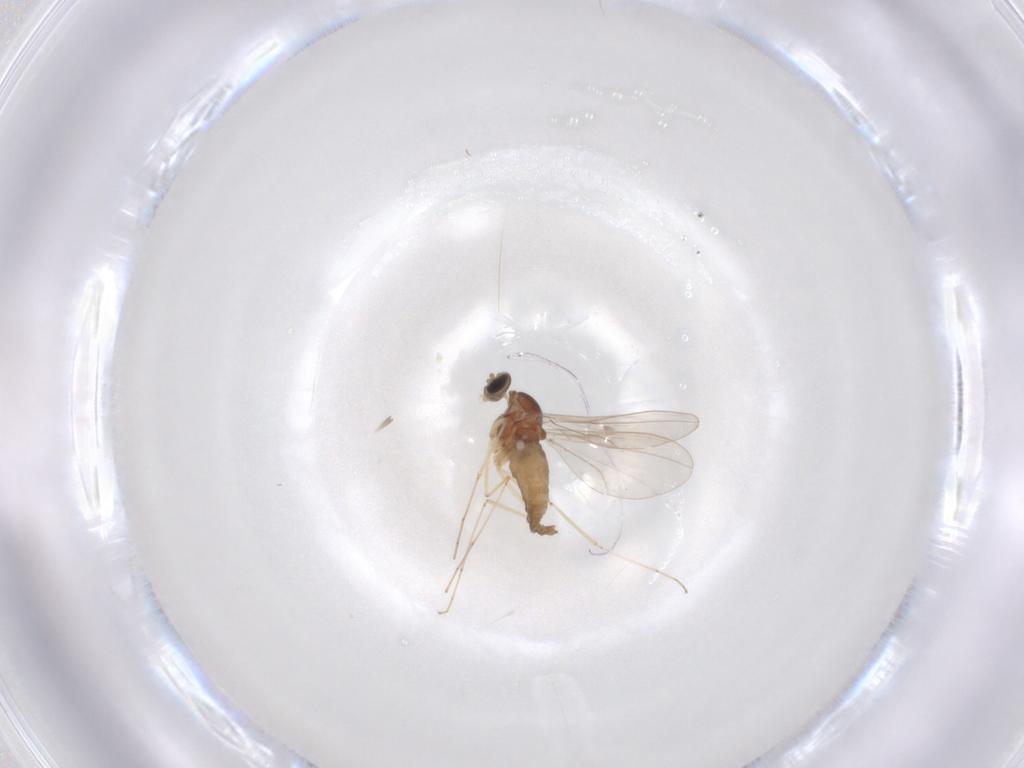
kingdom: Animalia
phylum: Arthropoda
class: Insecta
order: Diptera
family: Cecidomyiidae
